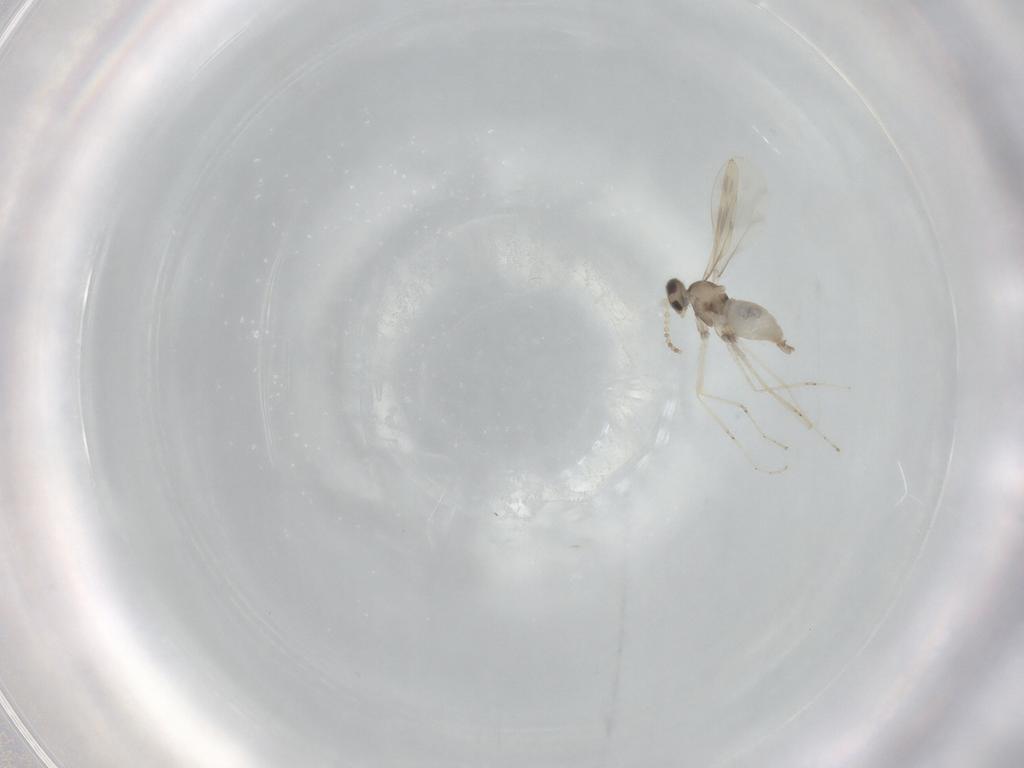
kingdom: Animalia
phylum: Arthropoda
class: Insecta
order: Diptera
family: Cecidomyiidae
